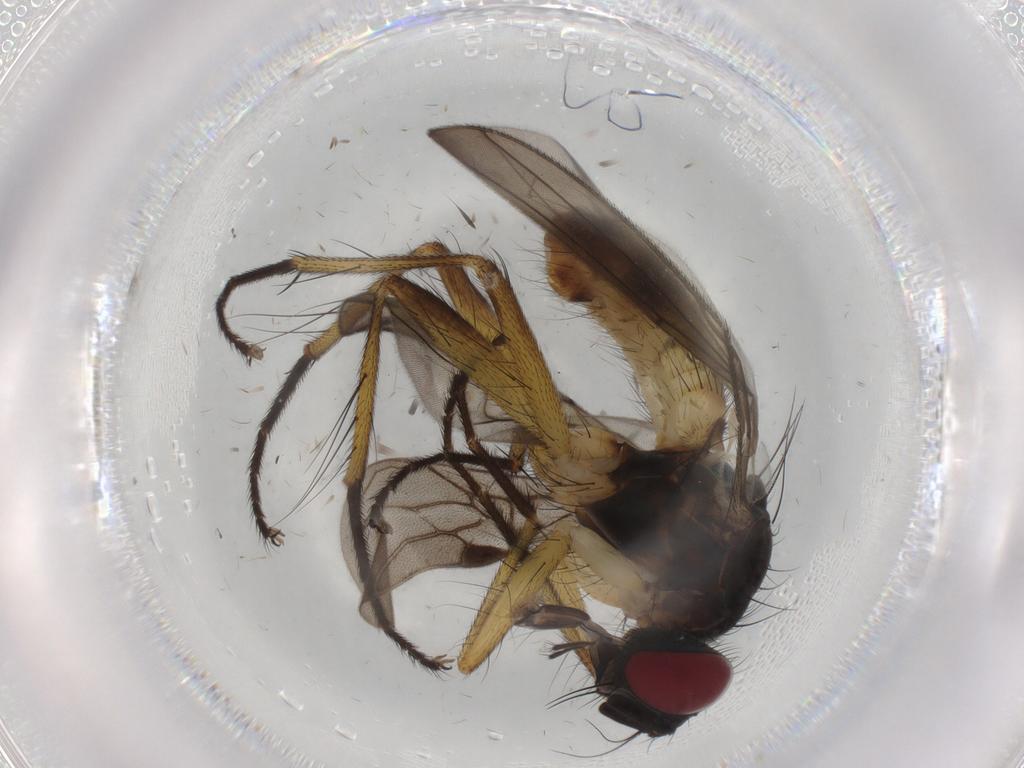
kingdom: Animalia
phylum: Arthropoda
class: Insecta
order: Diptera
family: Muscidae
